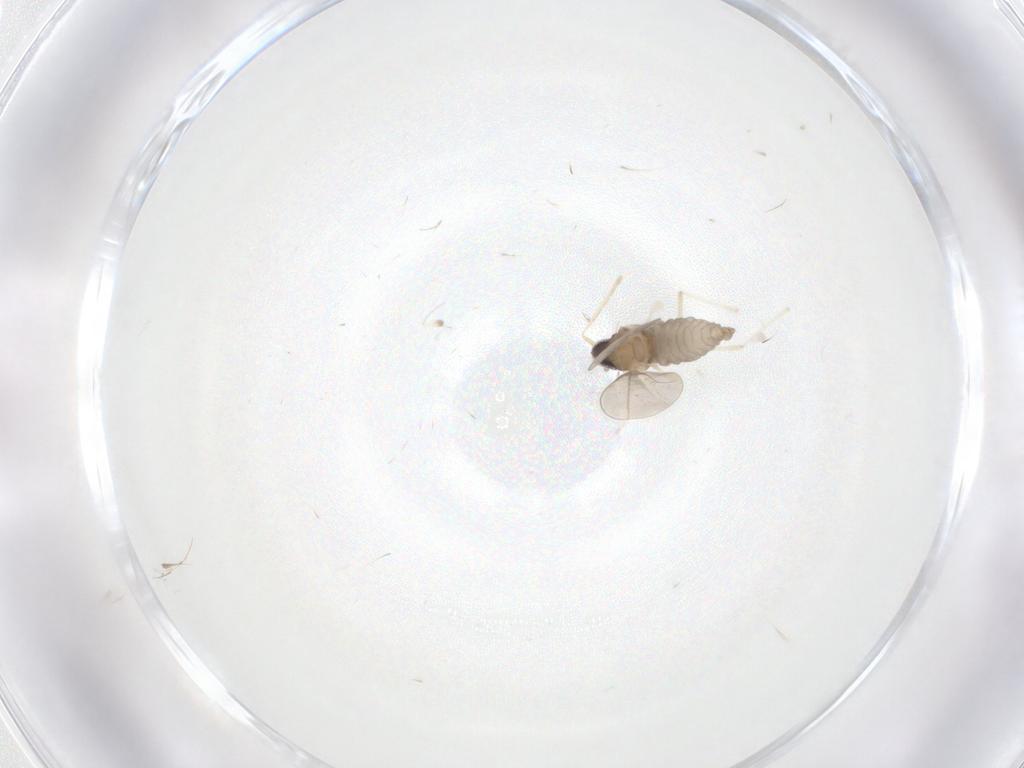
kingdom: Animalia
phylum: Arthropoda
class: Insecta
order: Diptera
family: Cecidomyiidae
